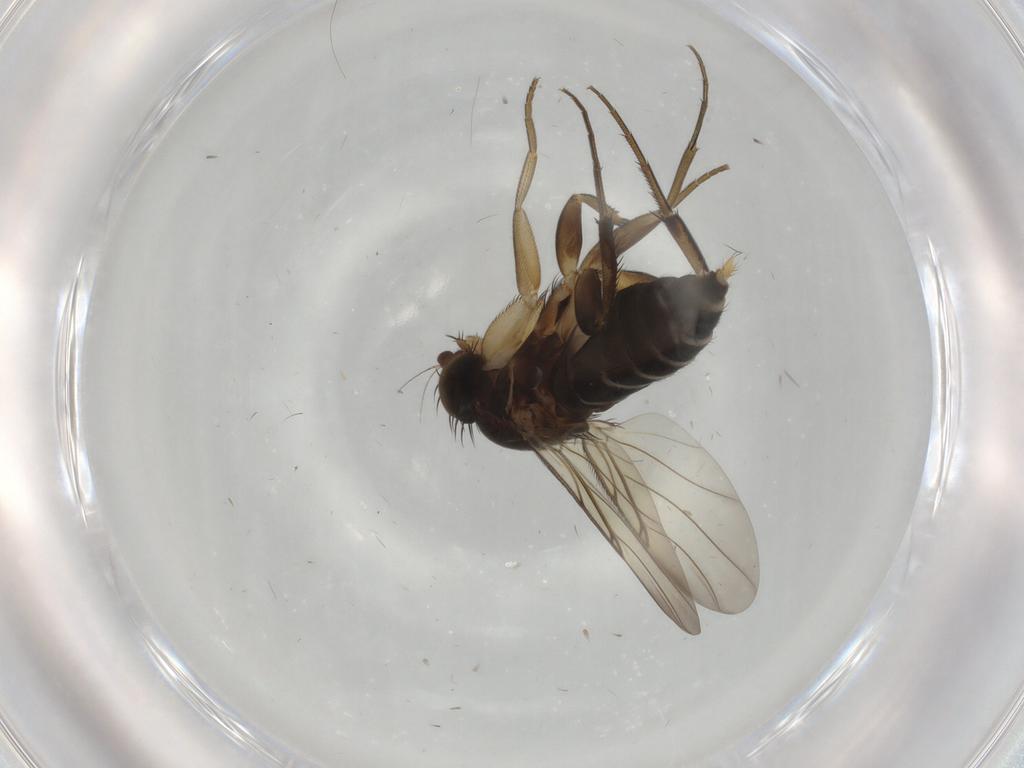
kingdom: Animalia
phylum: Arthropoda
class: Insecta
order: Diptera
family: Phoridae
